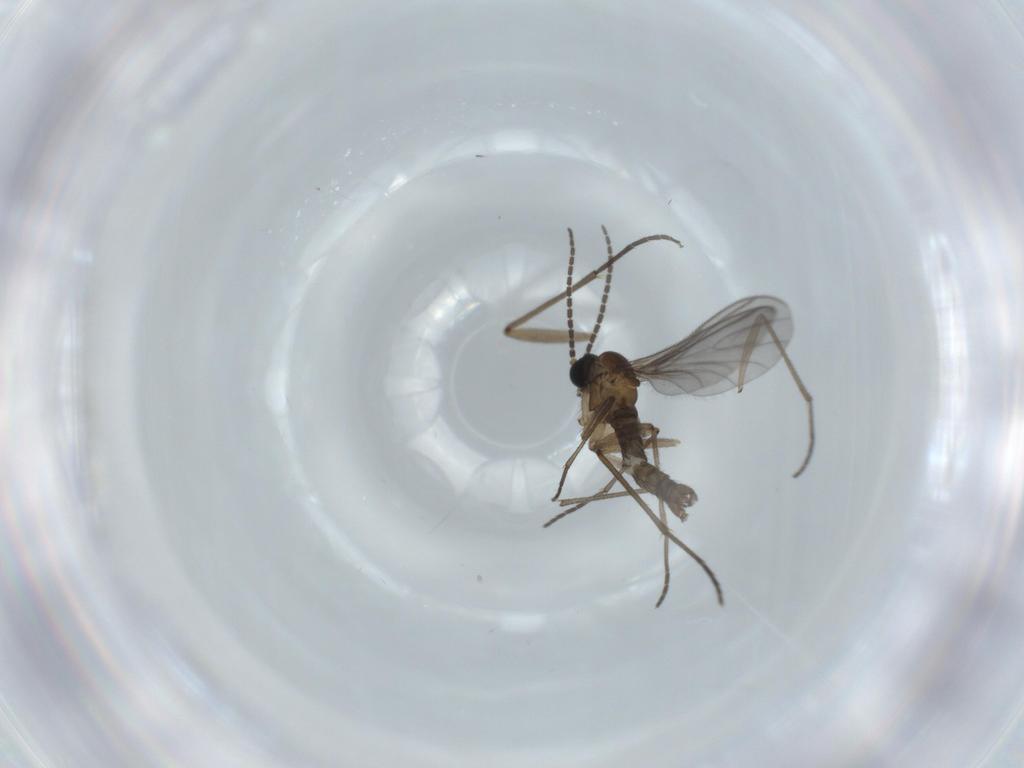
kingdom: Animalia
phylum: Arthropoda
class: Insecta
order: Diptera
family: Sciaridae
